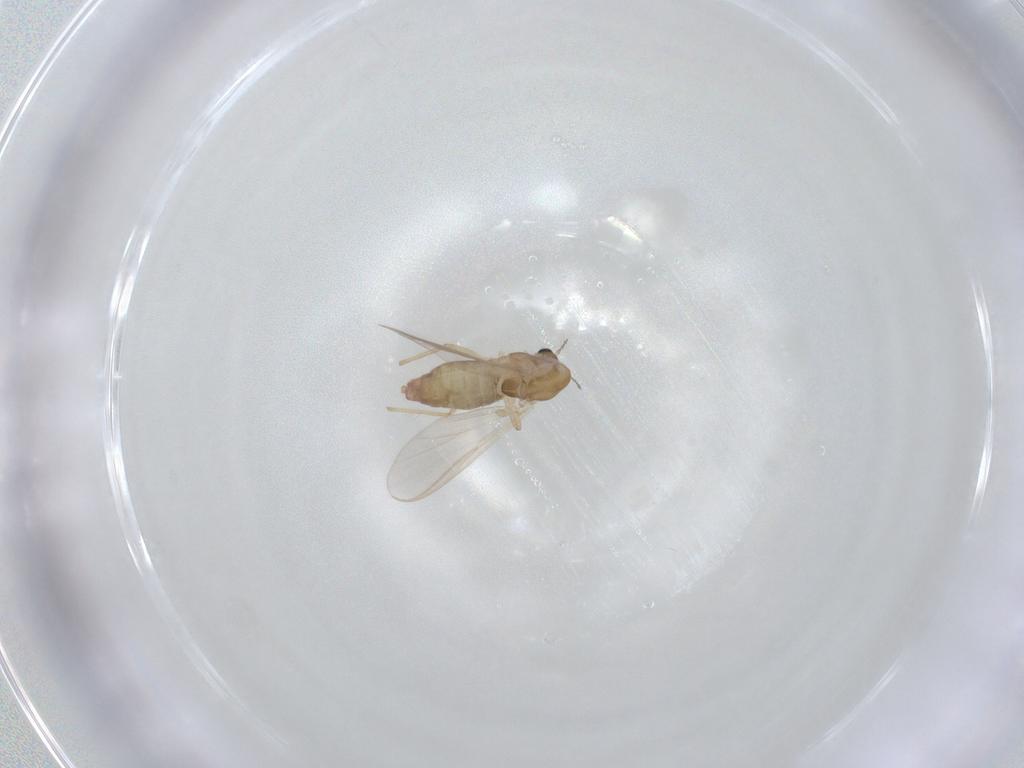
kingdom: Animalia
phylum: Arthropoda
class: Insecta
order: Diptera
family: Chironomidae
